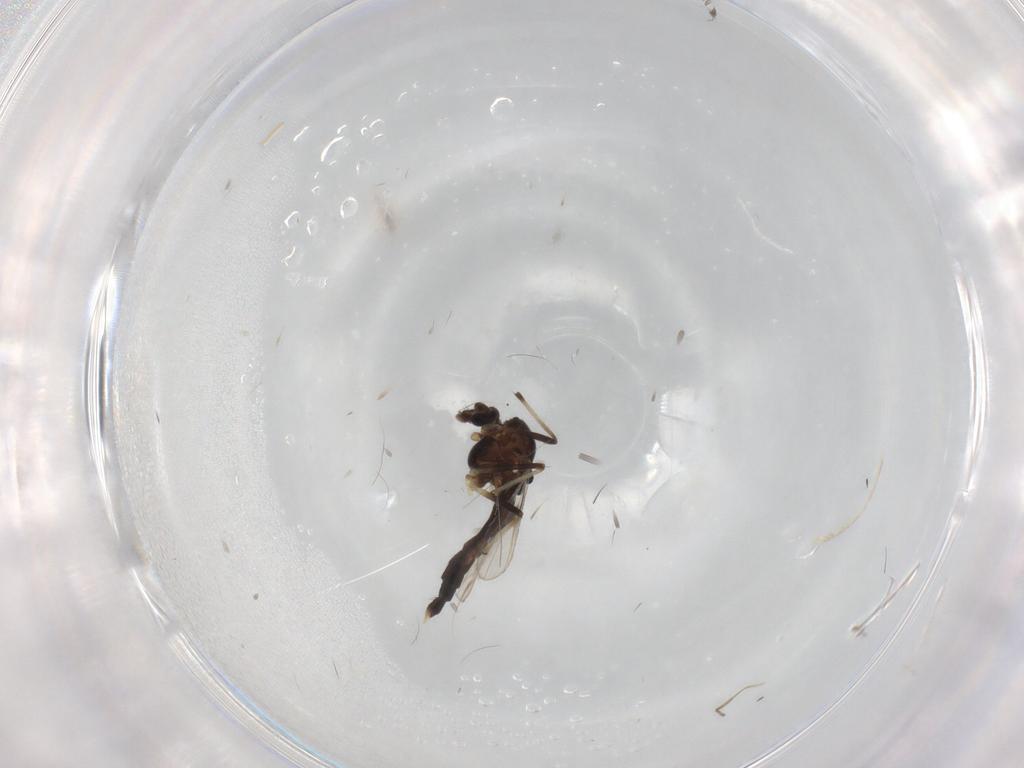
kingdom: Animalia
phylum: Arthropoda
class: Insecta
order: Diptera
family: Chironomidae
